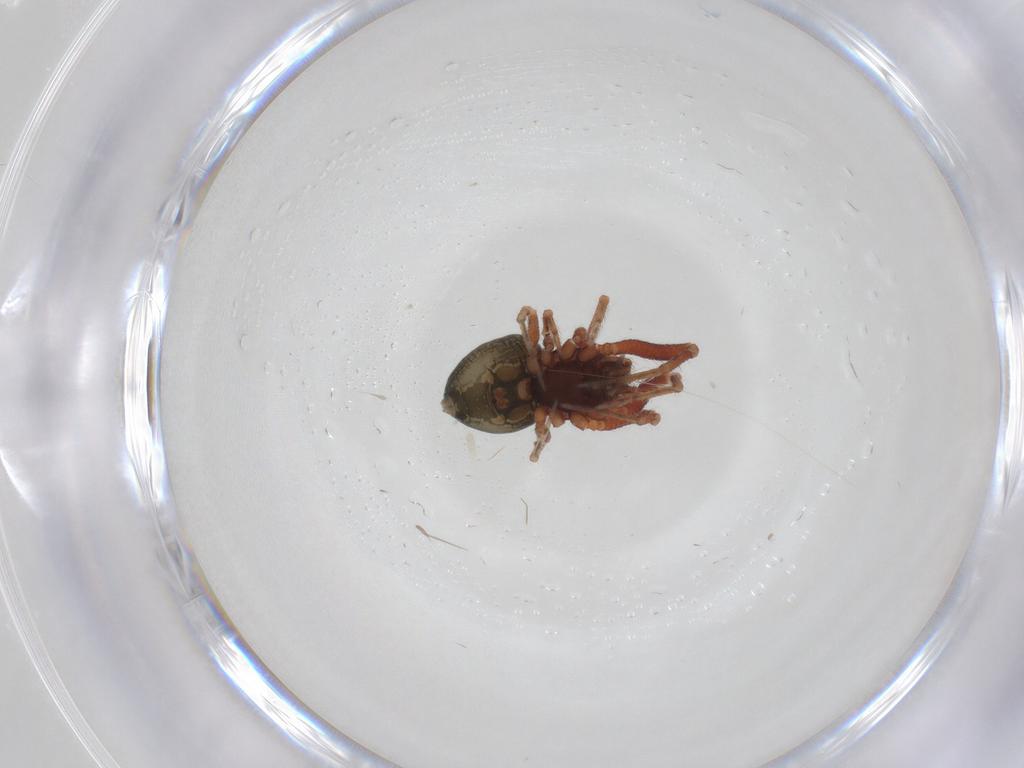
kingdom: Animalia
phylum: Arthropoda
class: Arachnida
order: Araneae
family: Theridiidae
